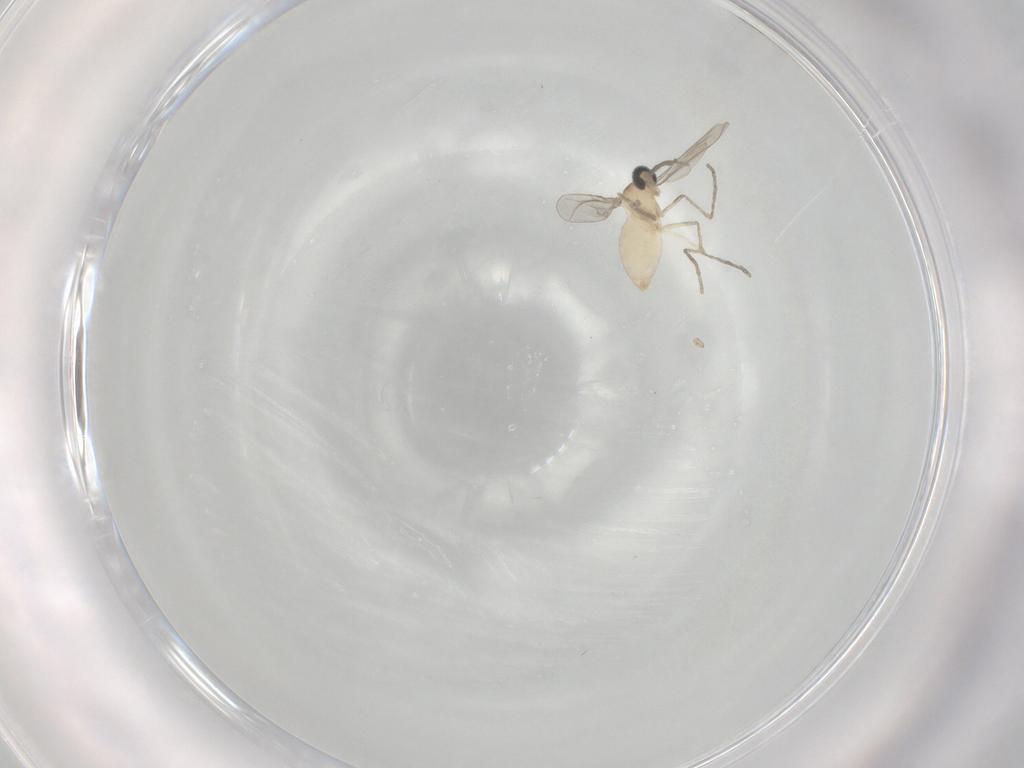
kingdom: Animalia
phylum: Arthropoda
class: Insecta
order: Diptera
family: Cecidomyiidae
